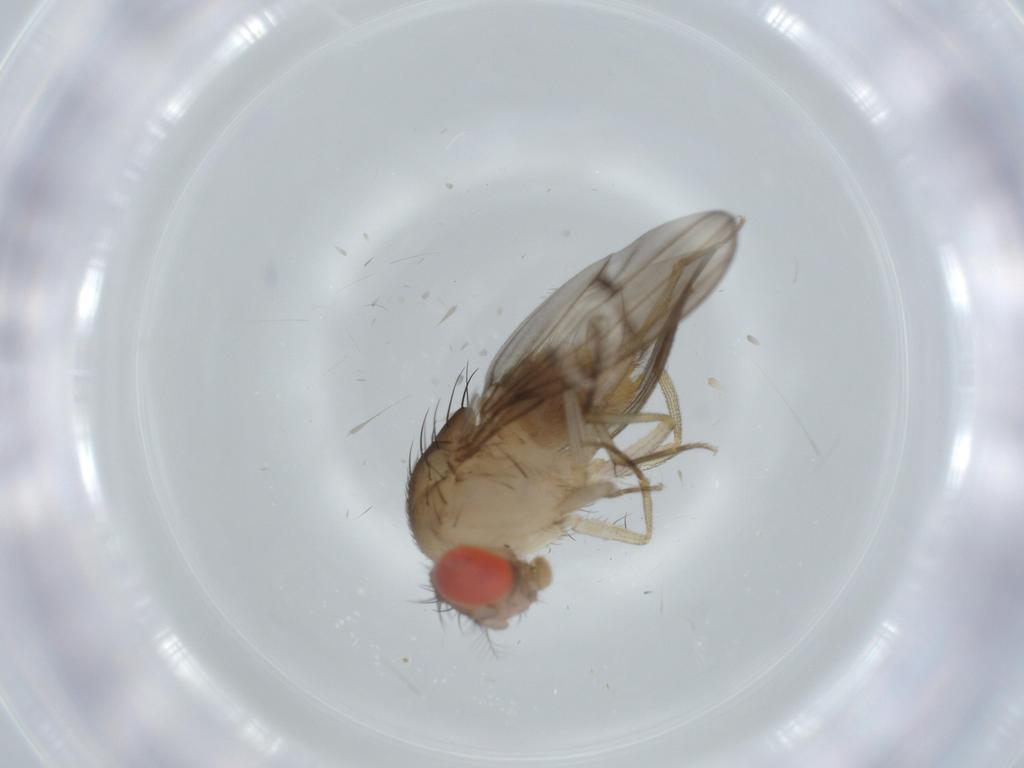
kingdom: Animalia
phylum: Arthropoda
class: Insecta
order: Diptera
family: Drosophilidae
